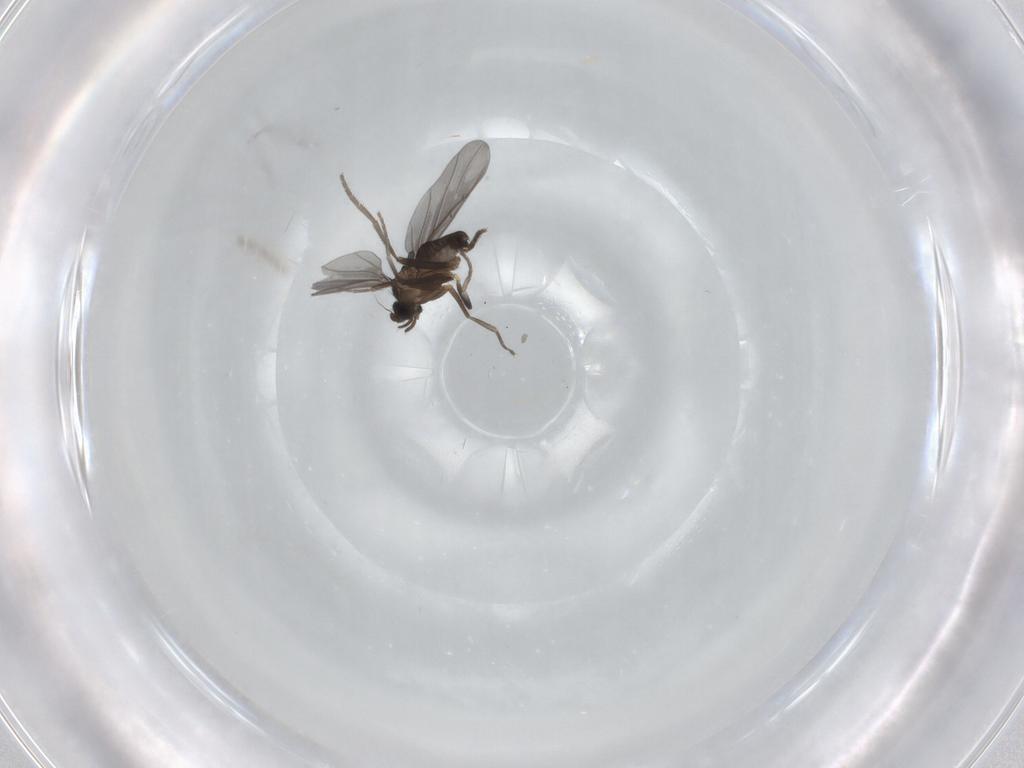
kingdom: Animalia
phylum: Arthropoda
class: Insecta
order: Diptera
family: Phoridae
